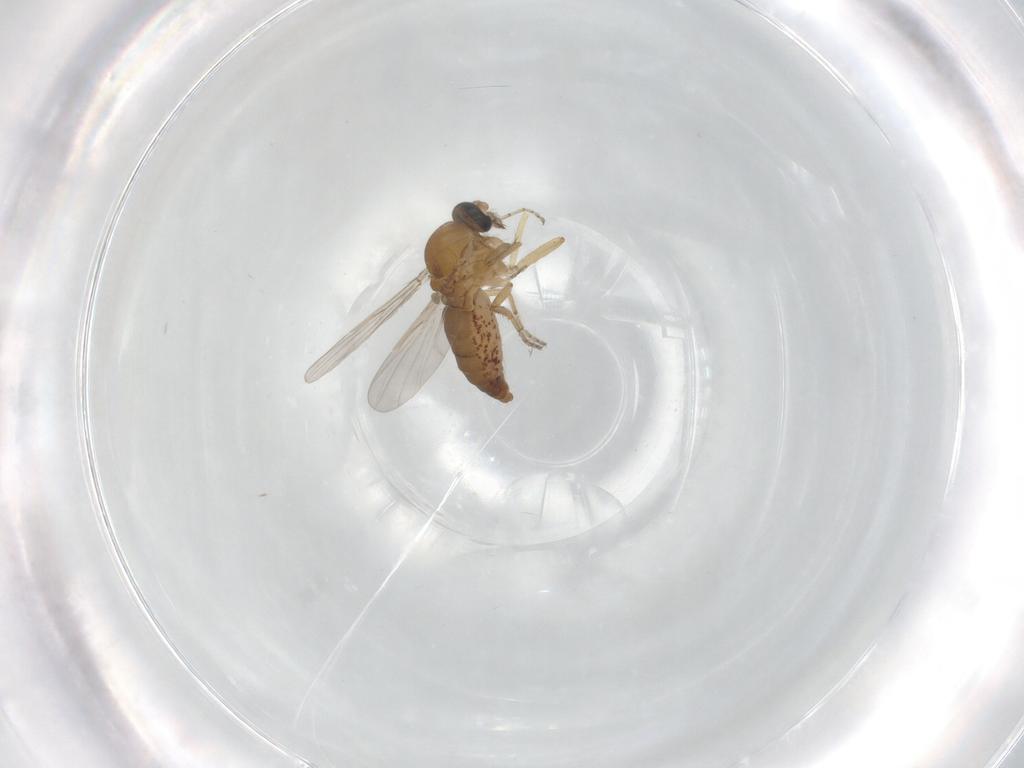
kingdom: Animalia
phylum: Arthropoda
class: Insecta
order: Diptera
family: Ceratopogonidae
